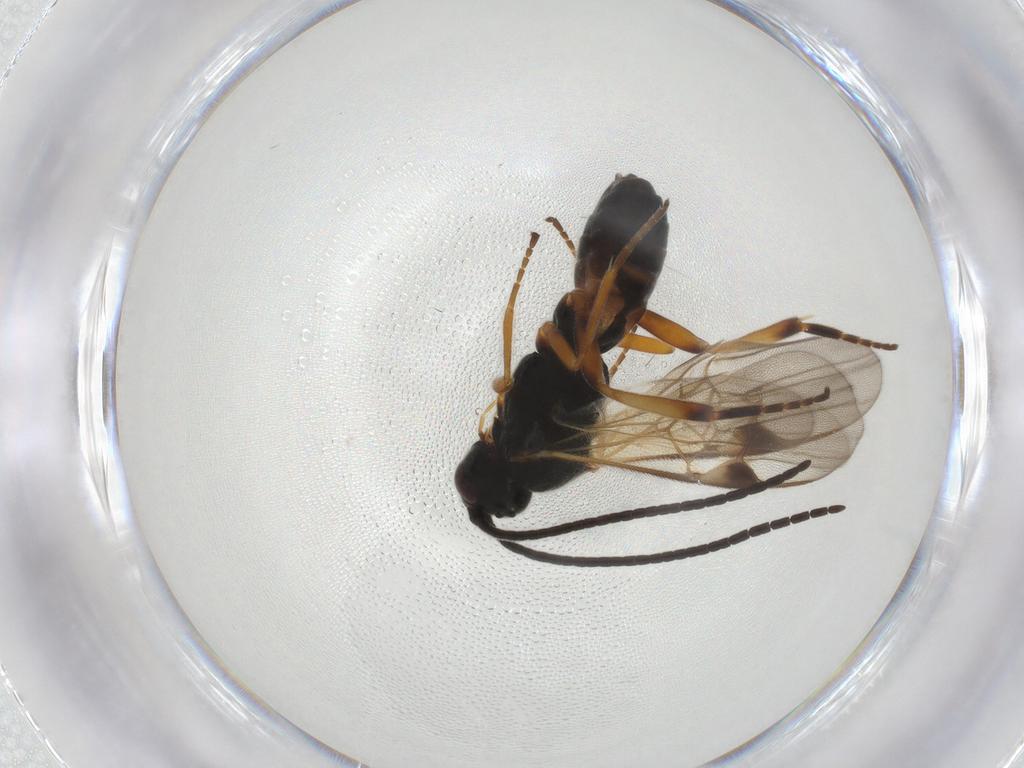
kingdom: Animalia
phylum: Arthropoda
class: Insecta
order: Hymenoptera
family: Braconidae
